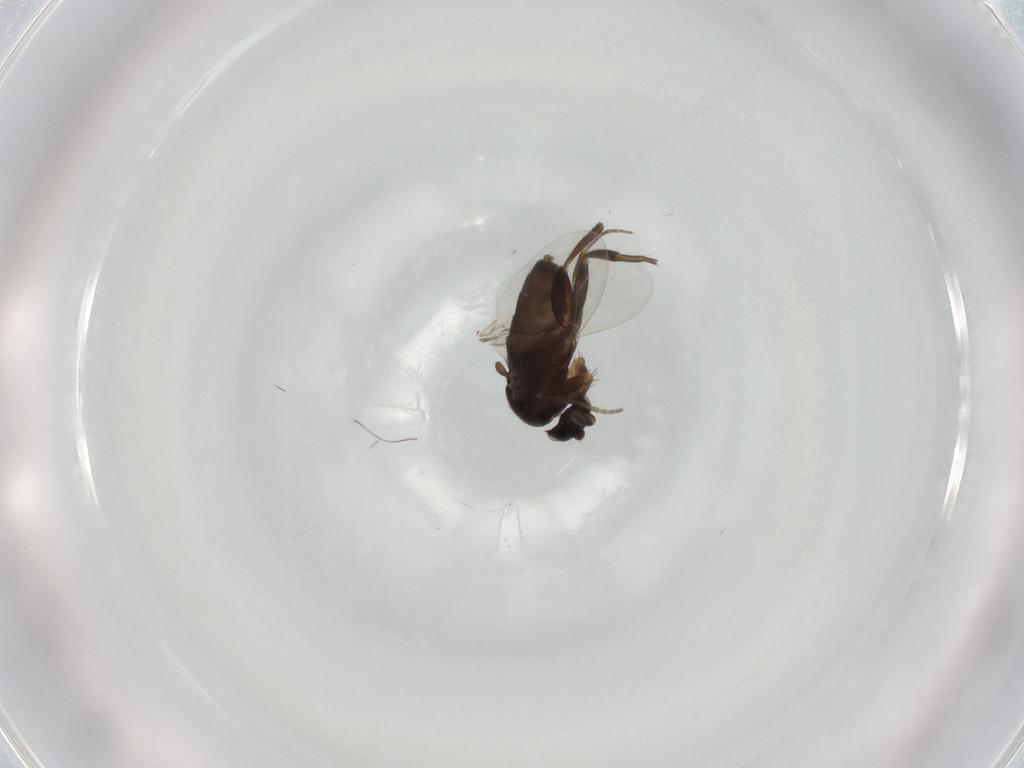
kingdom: Animalia
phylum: Arthropoda
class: Insecta
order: Diptera
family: Phoridae
